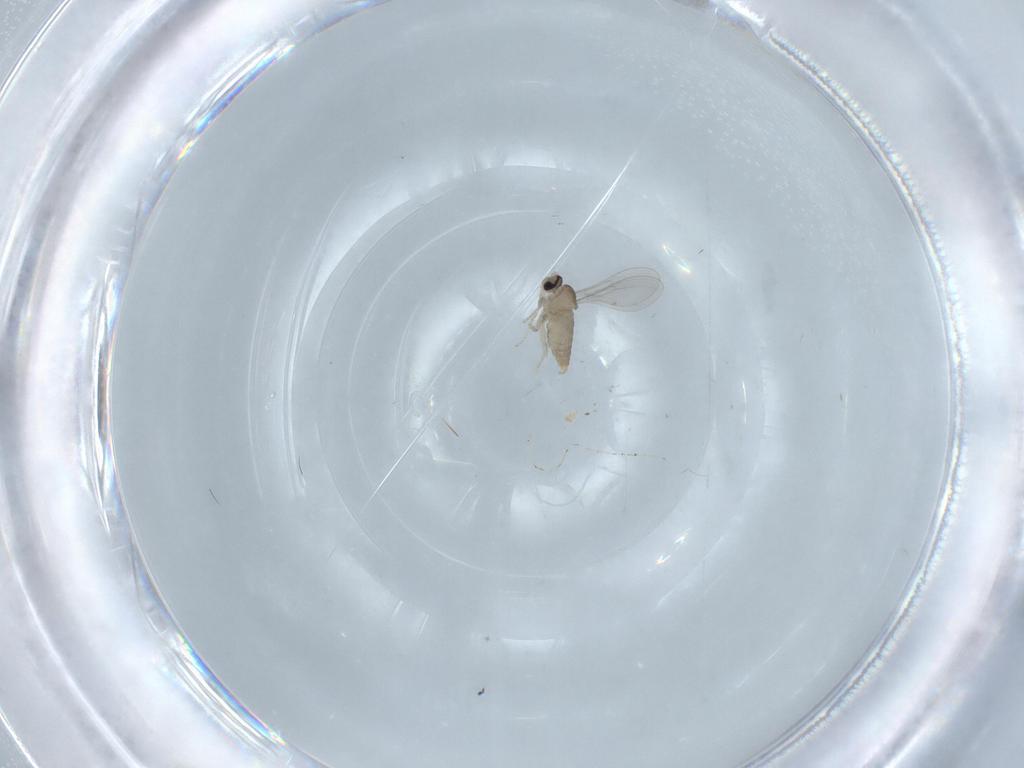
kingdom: Animalia
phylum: Arthropoda
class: Insecta
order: Diptera
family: Cecidomyiidae
